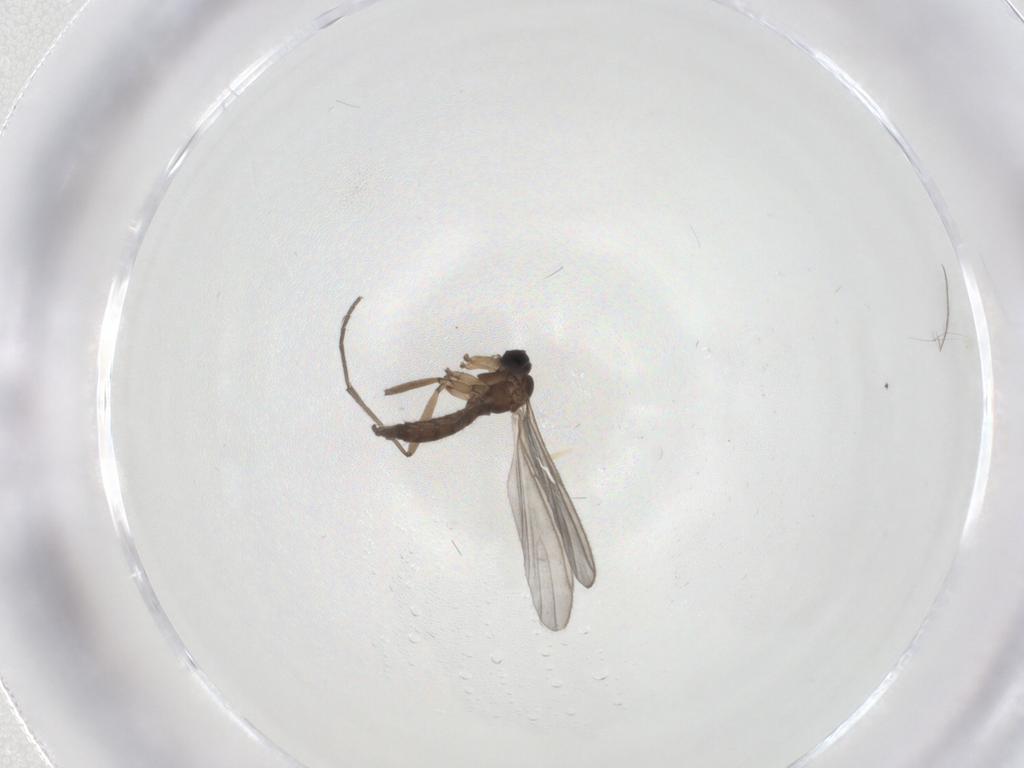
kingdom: Animalia
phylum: Arthropoda
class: Insecta
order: Diptera
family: Sciaridae
